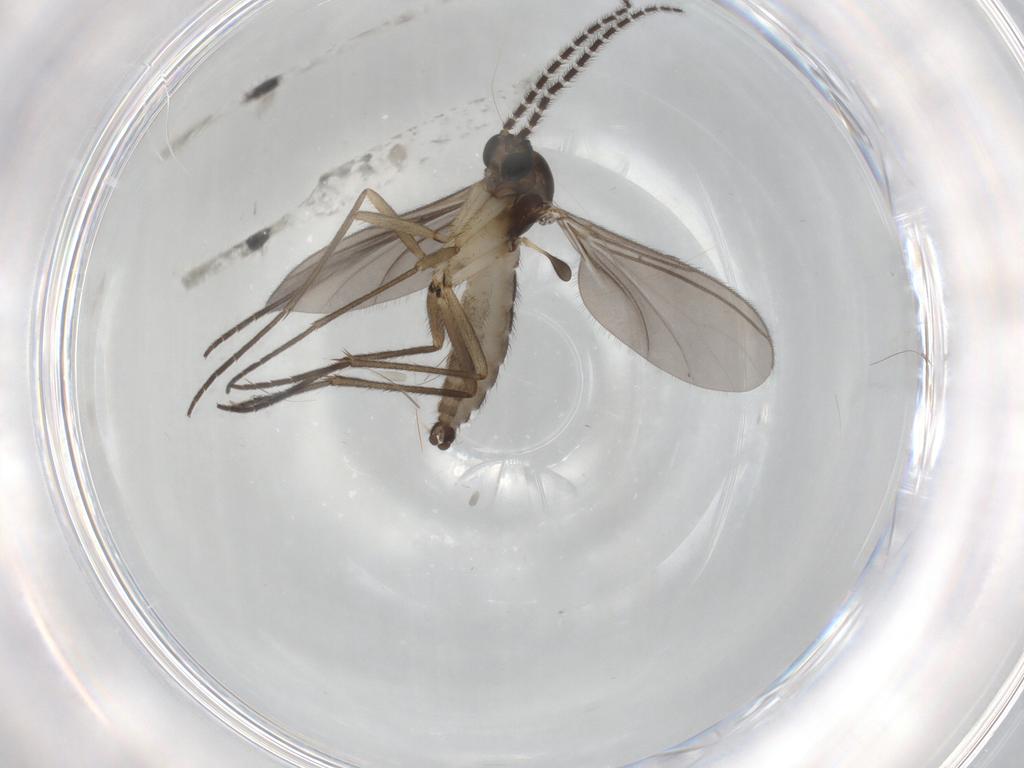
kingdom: Animalia
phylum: Arthropoda
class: Insecta
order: Diptera
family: Sciaridae
